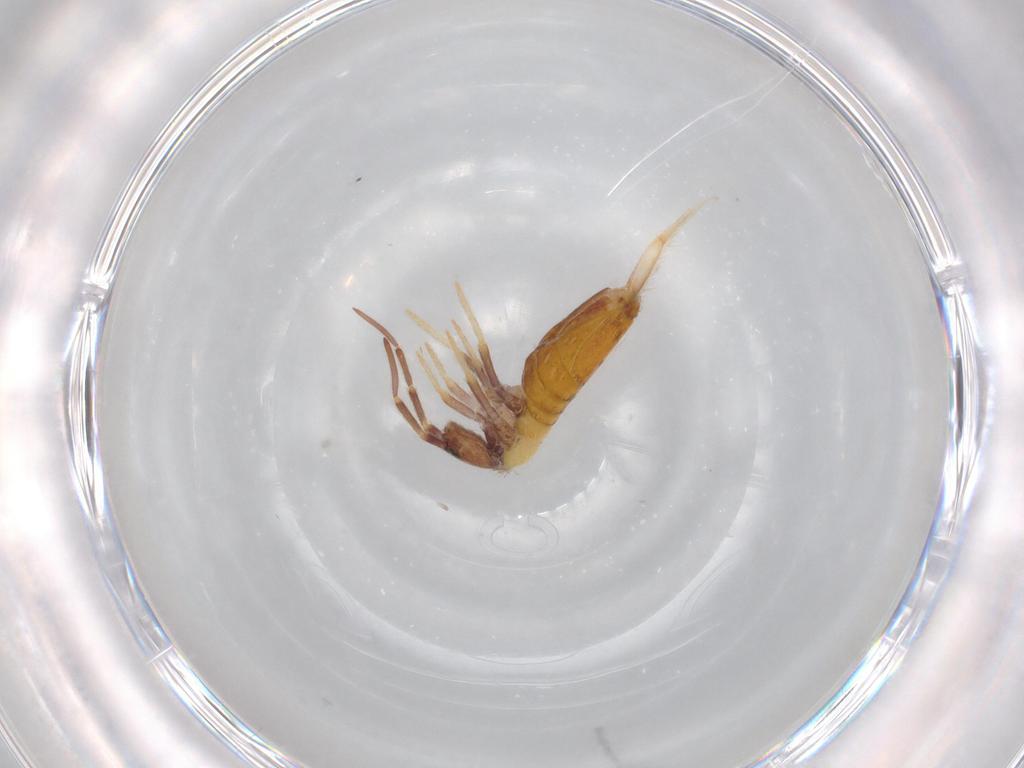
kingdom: Animalia
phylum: Arthropoda
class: Collembola
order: Entomobryomorpha
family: Entomobryidae
